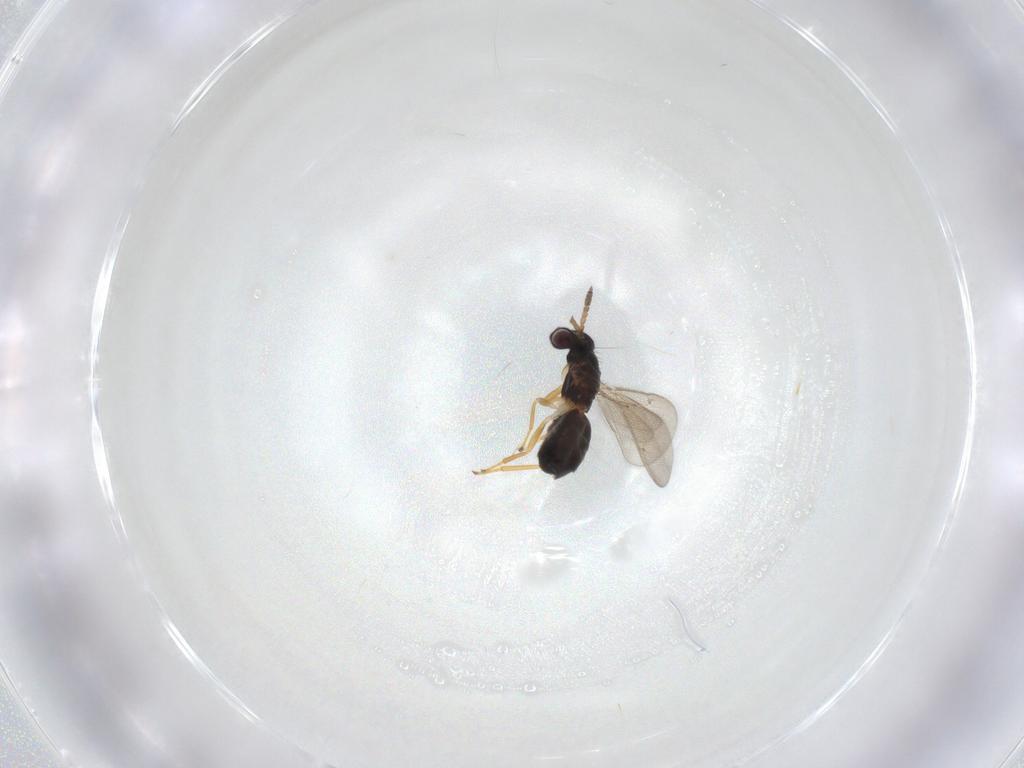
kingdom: Animalia
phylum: Arthropoda
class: Insecta
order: Hymenoptera
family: Eulophidae
